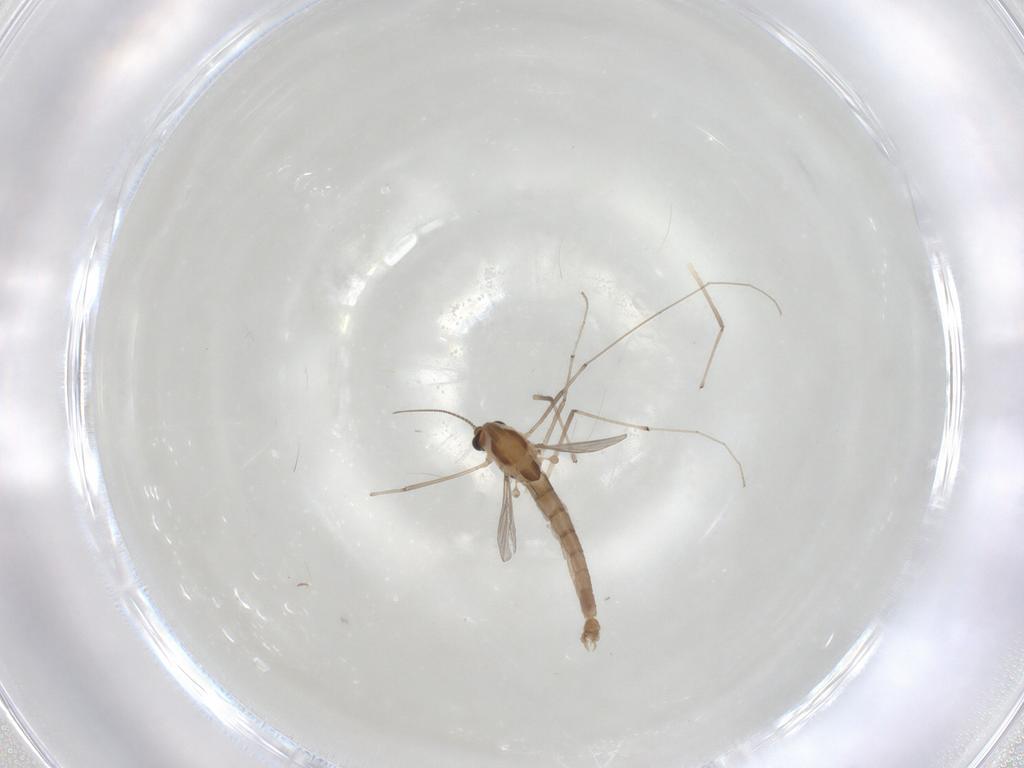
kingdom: Animalia
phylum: Arthropoda
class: Insecta
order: Diptera
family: Chironomidae
